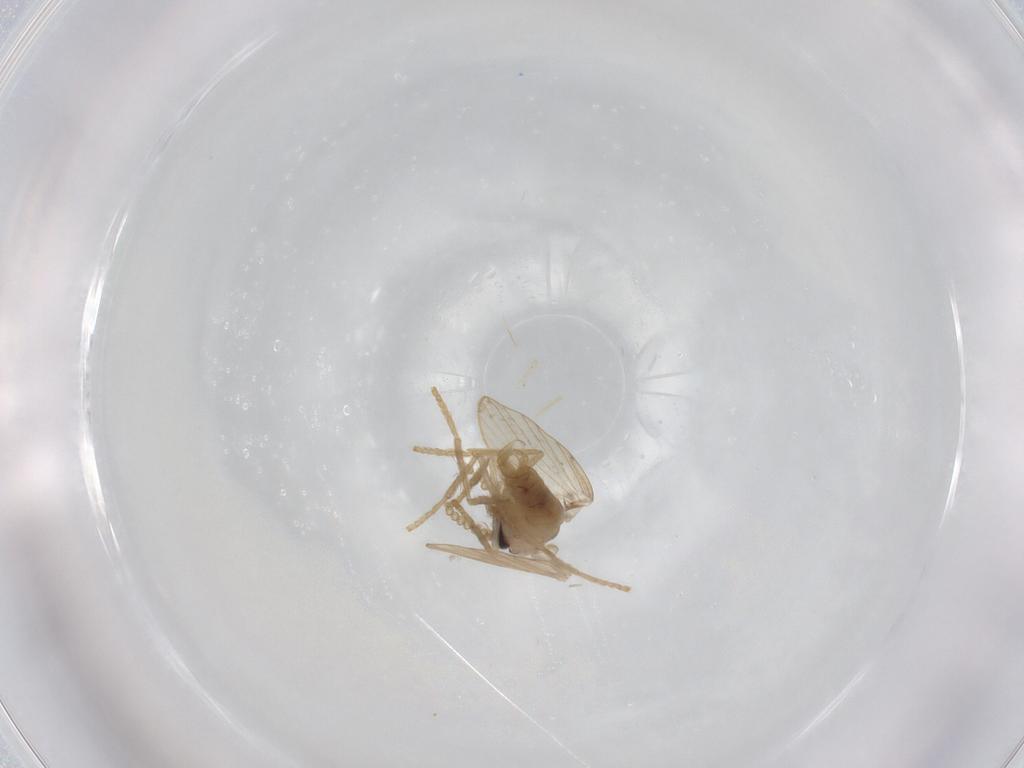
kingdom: Animalia
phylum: Arthropoda
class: Insecta
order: Diptera
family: Psychodidae
